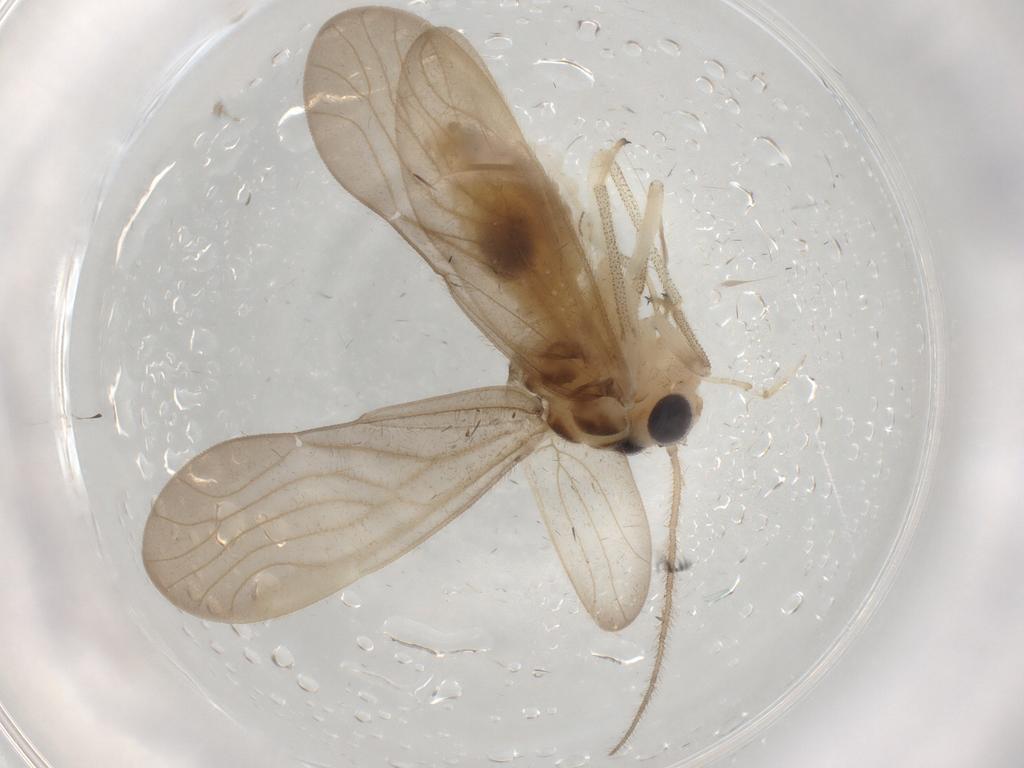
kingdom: Animalia
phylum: Arthropoda
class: Insecta
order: Psocodea
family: Amphipsocidae
